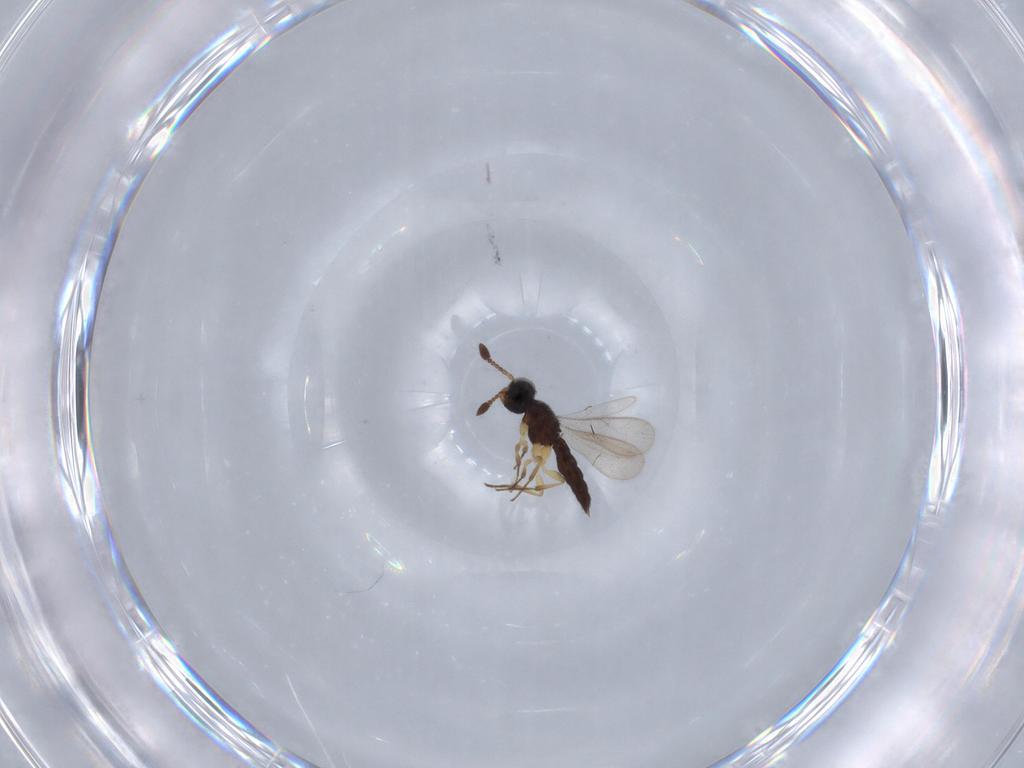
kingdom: Animalia
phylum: Arthropoda
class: Insecta
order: Hymenoptera
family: Scelionidae
